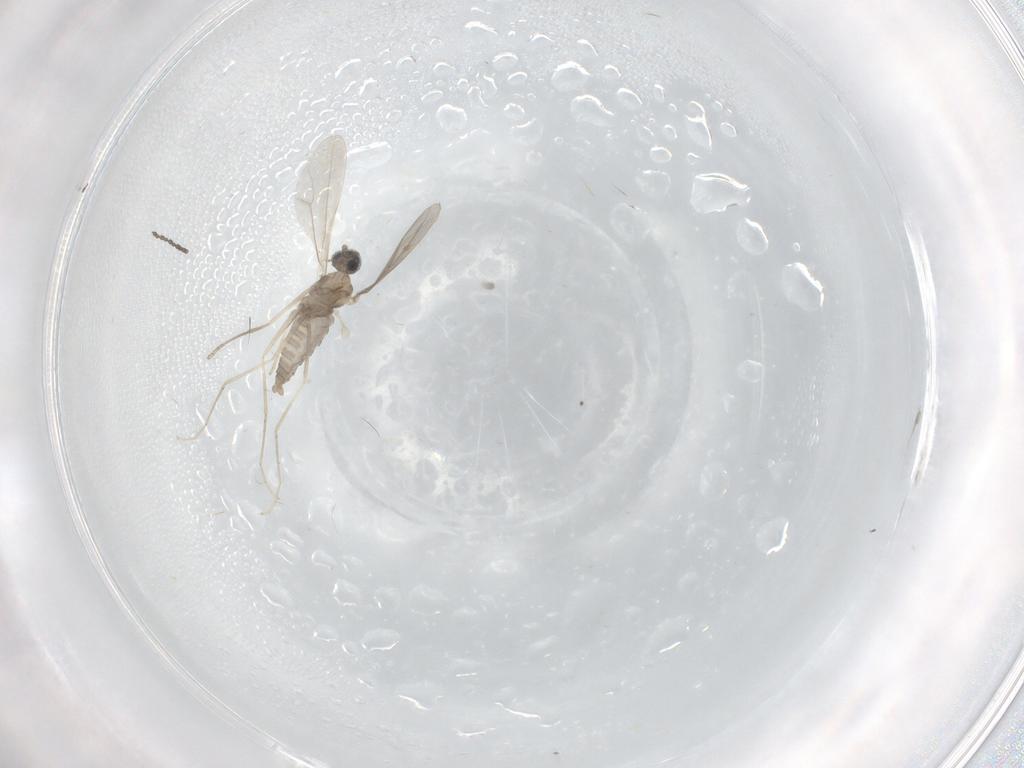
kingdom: Animalia
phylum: Arthropoda
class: Insecta
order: Diptera
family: Cecidomyiidae
